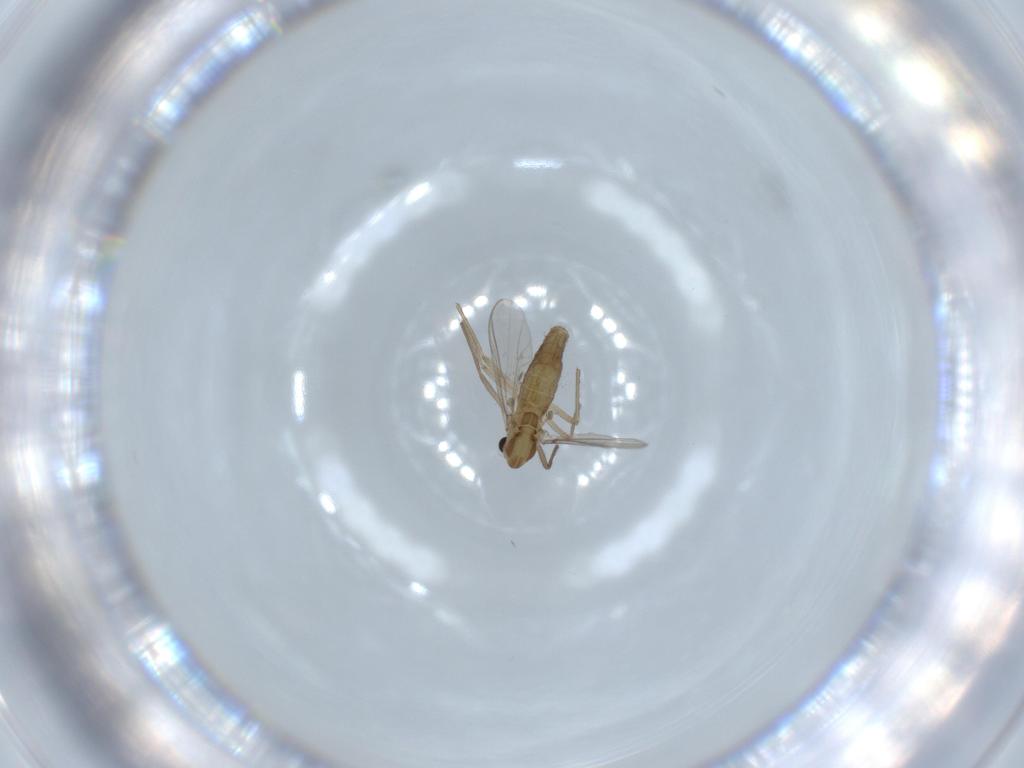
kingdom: Animalia
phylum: Arthropoda
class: Insecta
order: Diptera
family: Chironomidae
